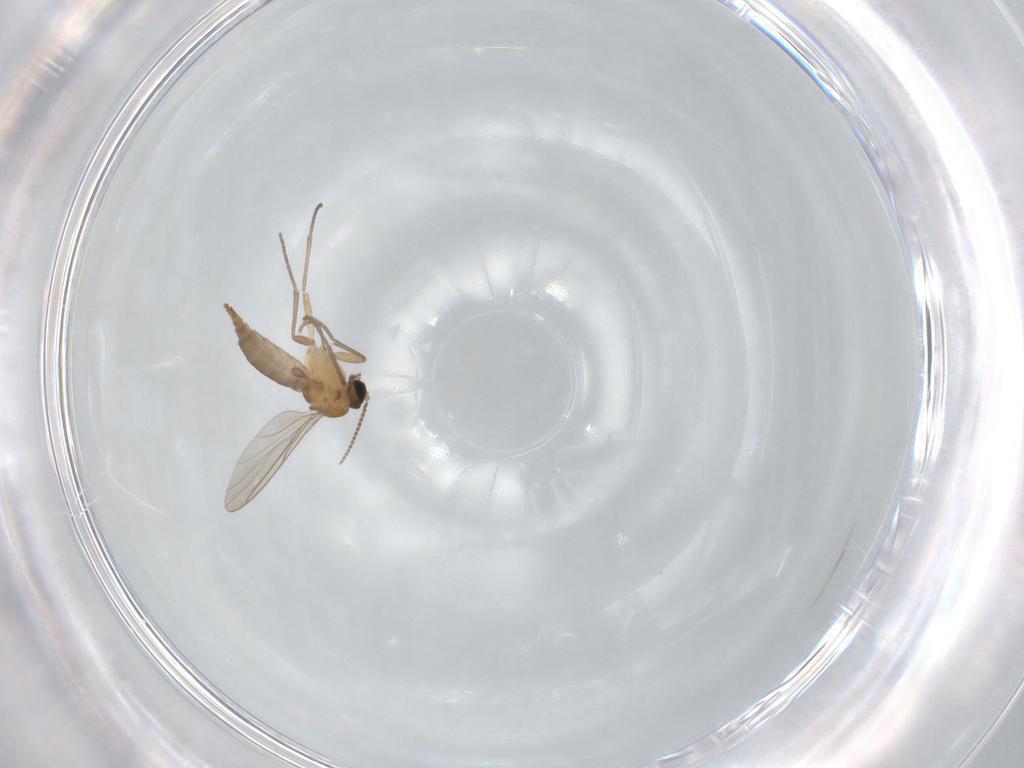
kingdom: Animalia
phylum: Arthropoda
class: Insecta
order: Diptera
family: Sciaridae
